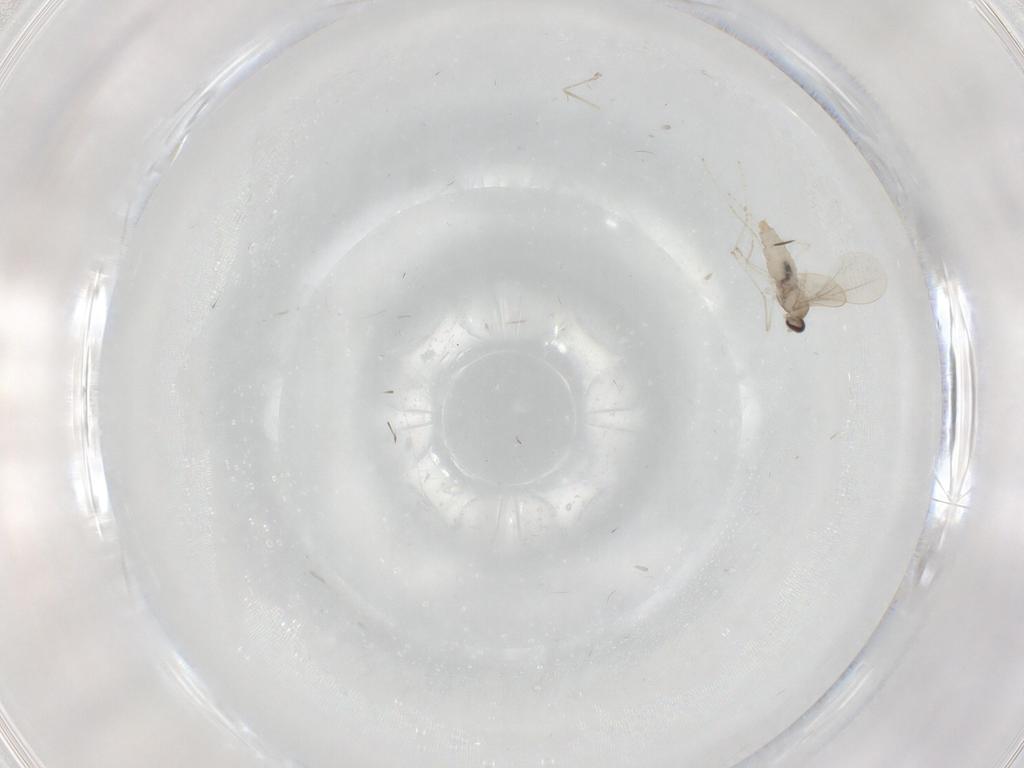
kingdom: Animalia
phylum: Arthropoda
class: Insecta
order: Diptera
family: Cecidomyiidae
